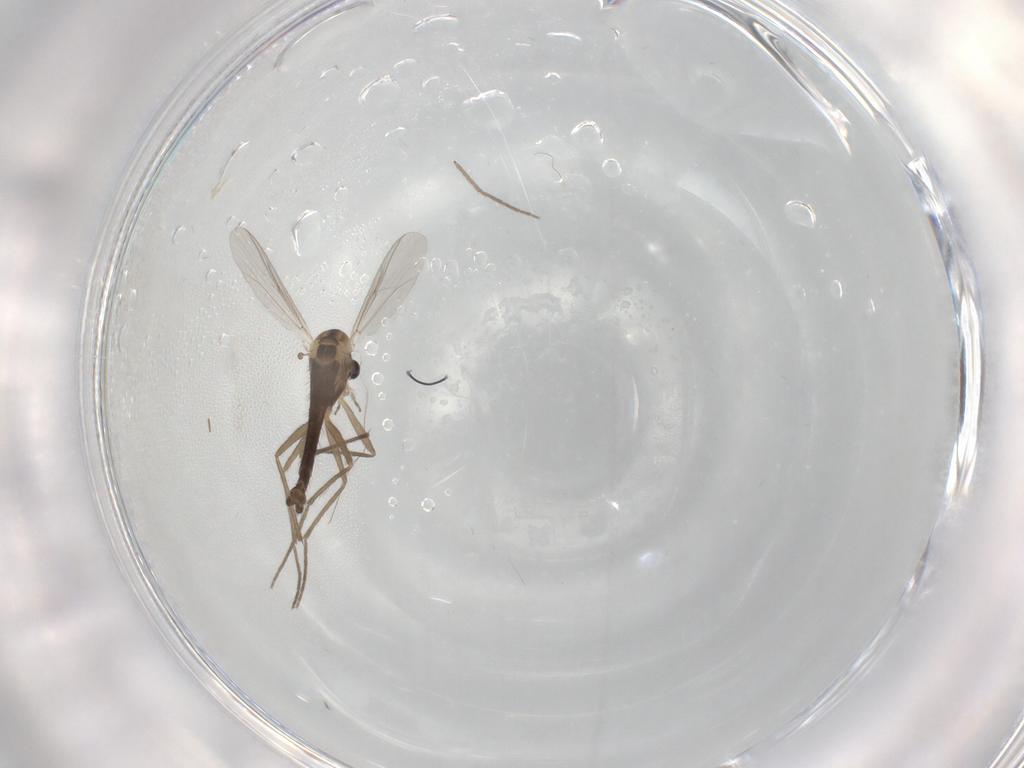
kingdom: Animalia
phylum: Arthropoda
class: Insecta
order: Diptera
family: Chironomidae
